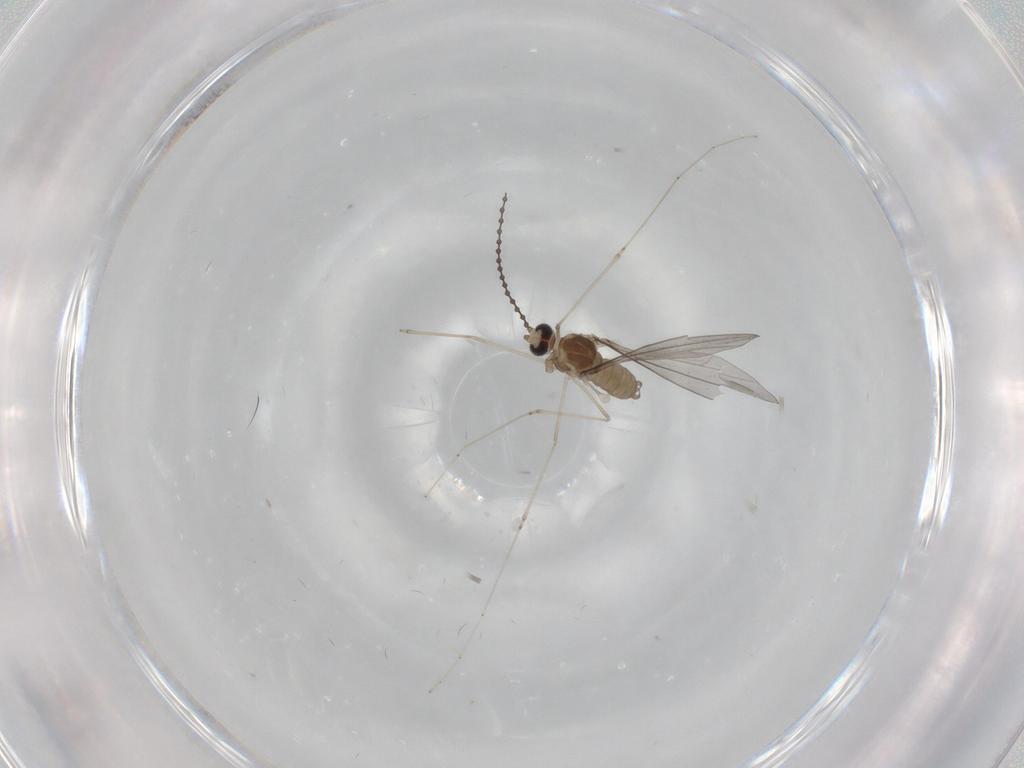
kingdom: Animalia
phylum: Arthropoda
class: Insecta
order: Diptera
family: Cecidomyiidae
